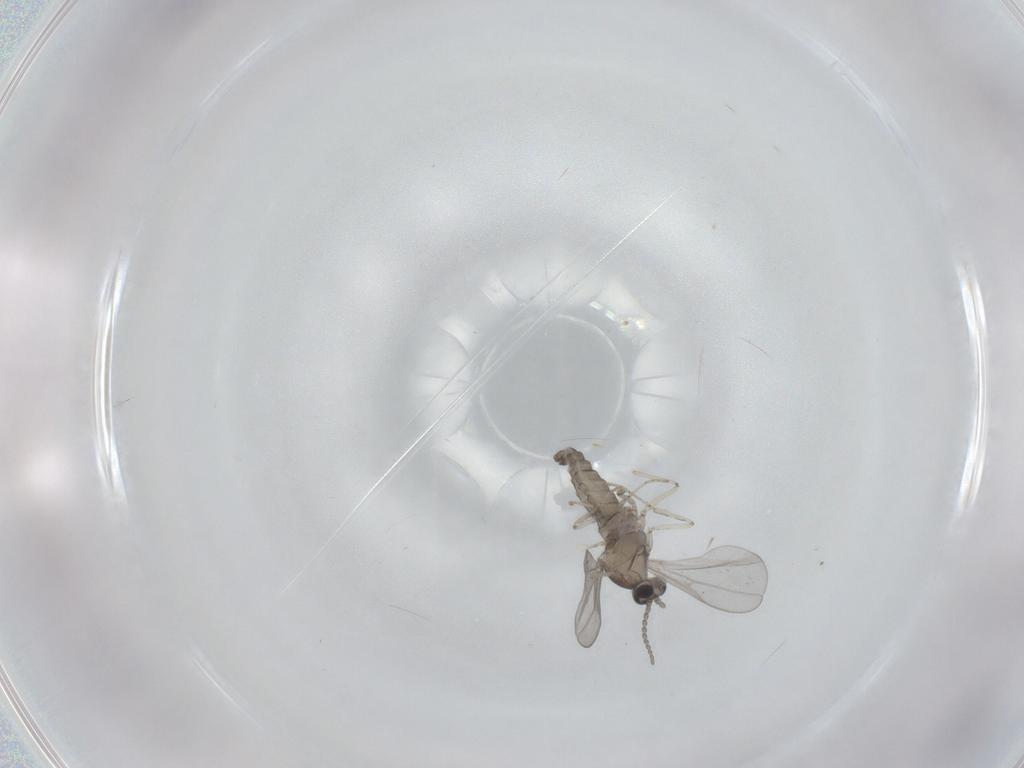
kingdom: Animalia
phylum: Arthropoda
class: Insecta
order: Diptera
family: Cecidomyiidae
